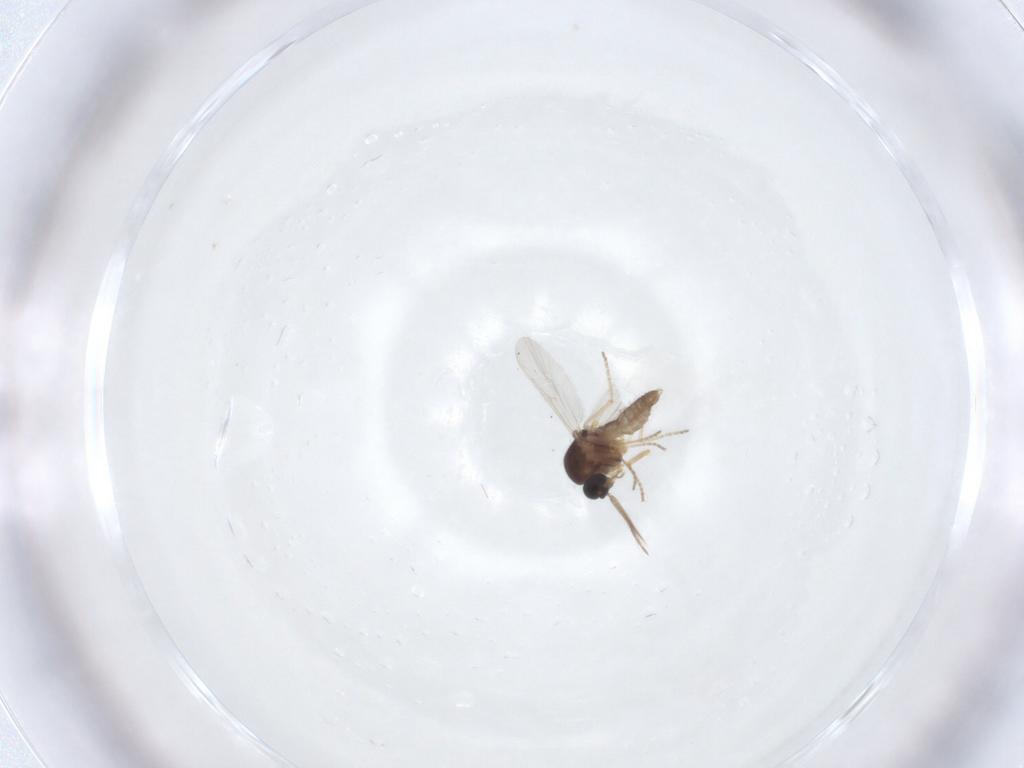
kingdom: Animalia
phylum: Arthropoda
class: Insecta
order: Diptera
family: Ceratopogonidae
